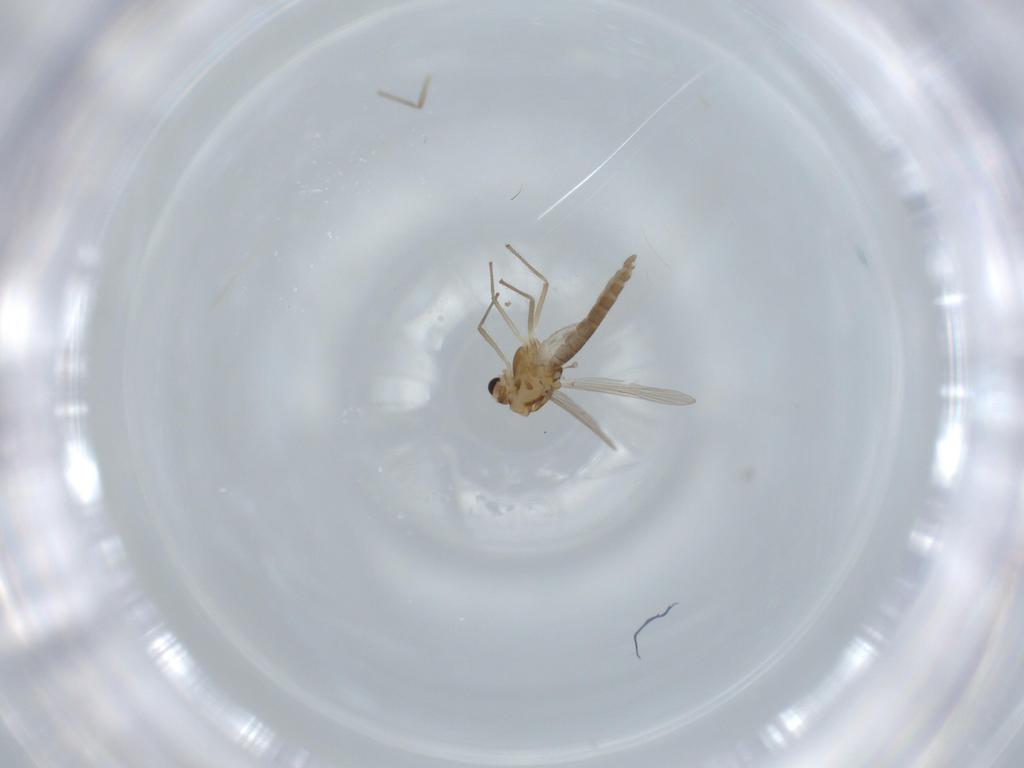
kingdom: Animalia
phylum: Arthropoda
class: Insecta
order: Diptera
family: Chironomidae
